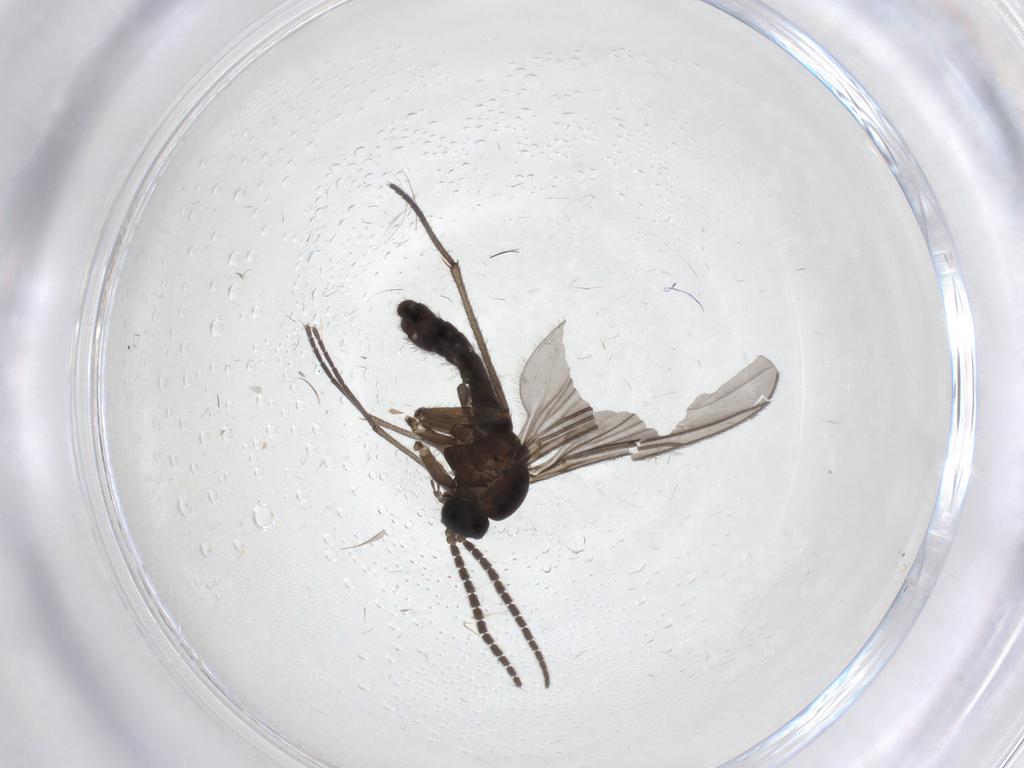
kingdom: Animalia
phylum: Arthropoda
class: Insecta
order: Diptera
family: Sciaridae
